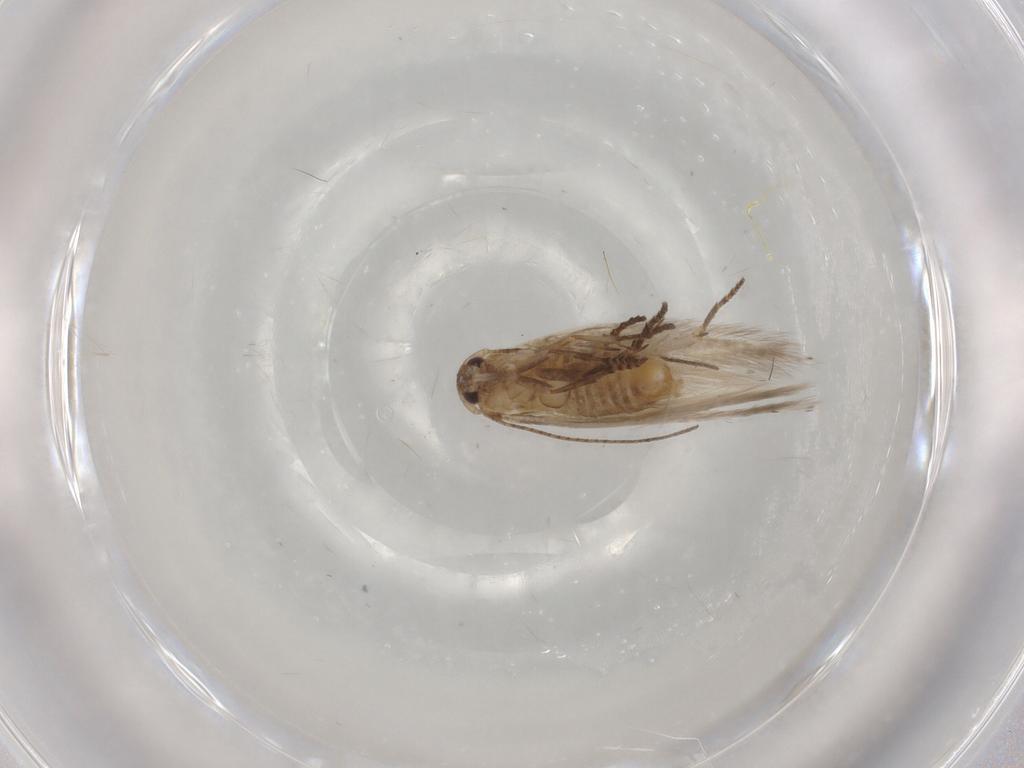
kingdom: Animalia
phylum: Arthropoda
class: Insecta
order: Lepidoptera
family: Bucculatricidae
